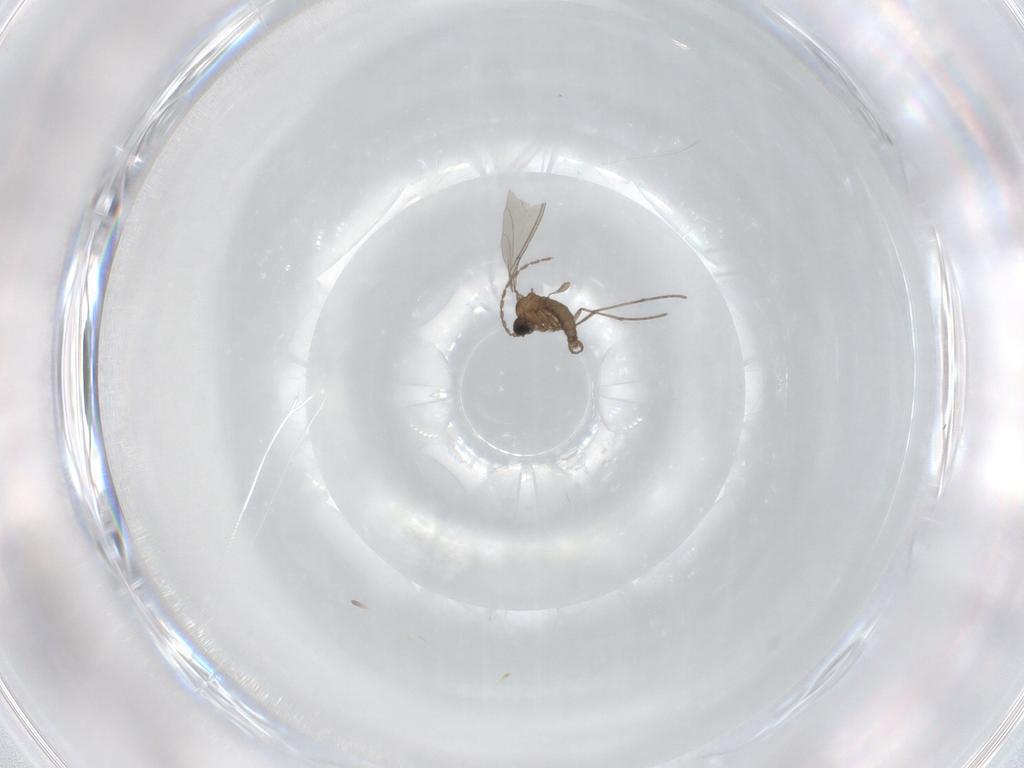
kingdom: Animalia
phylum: Arthropoda
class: Insecta
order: Diptera
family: Sciaridae
